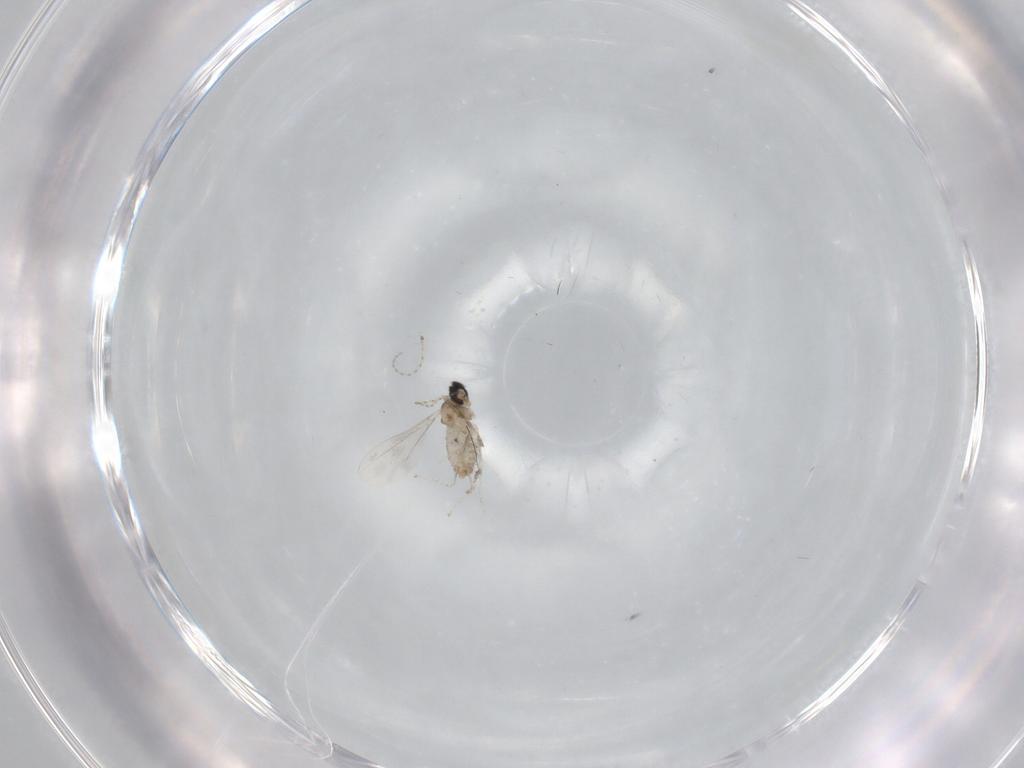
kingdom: Animalia
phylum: Arthropoda
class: Insecta
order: Diptera
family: Cecidomyiidae
